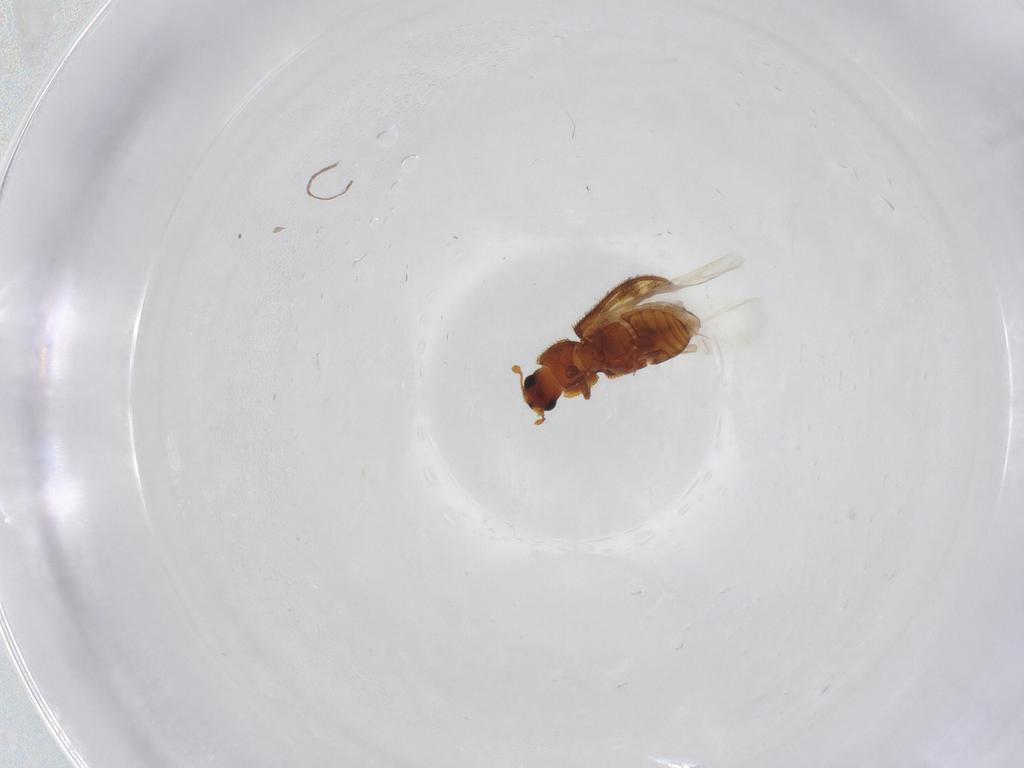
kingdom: Animalia
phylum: Arthropoda
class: Insecta
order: Coleoptera
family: Zopheridae
